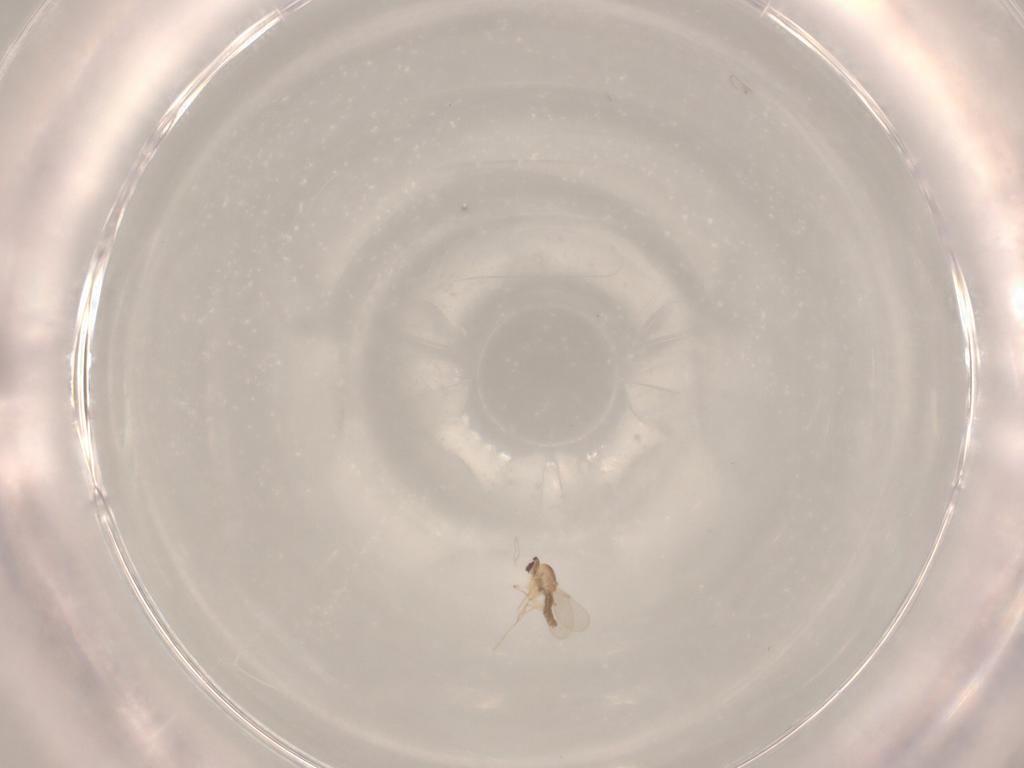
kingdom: Animalia
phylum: Arthropoda
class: Insecta
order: Diptera
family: Ceratopogonidae
